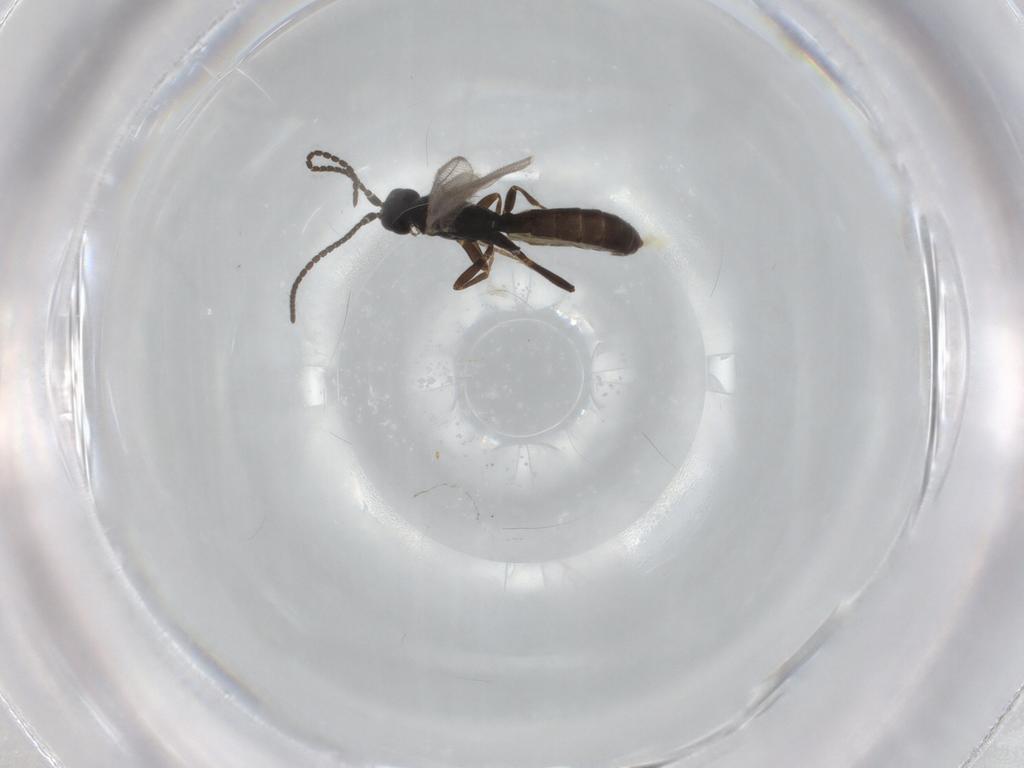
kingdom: Animalia
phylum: Arthropoda
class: Insecta
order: Hymenoptera
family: Ichneumonidae
